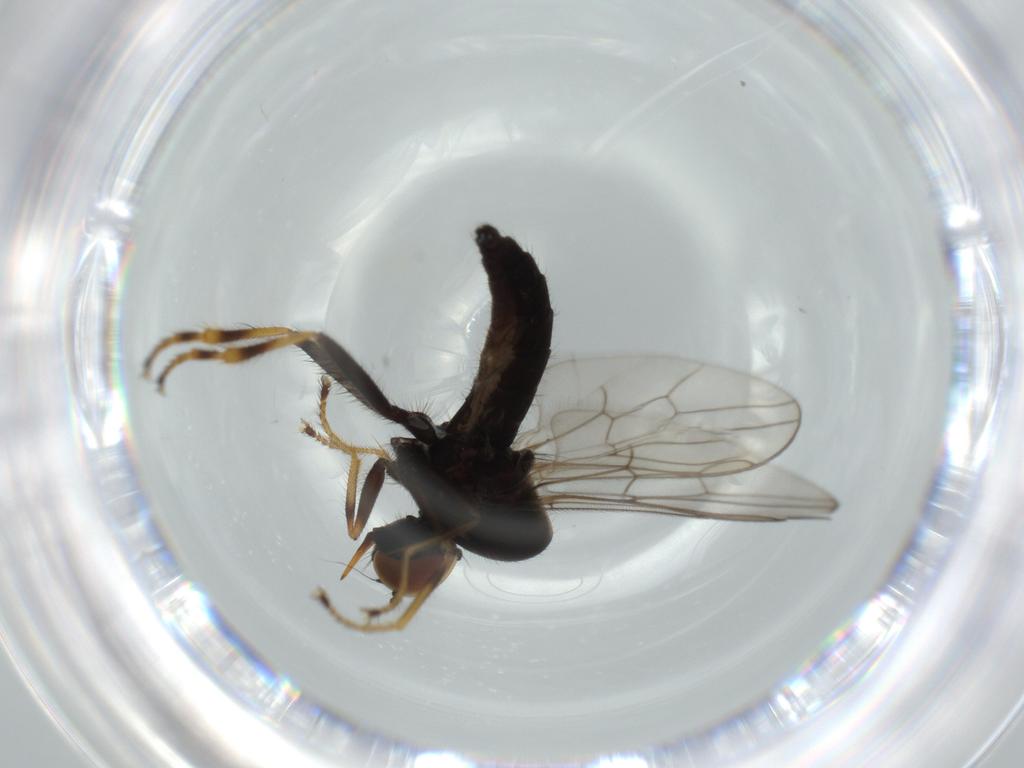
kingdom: Animalia
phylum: Arthropoda
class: Insecta
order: Diptera
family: Hybotidae
